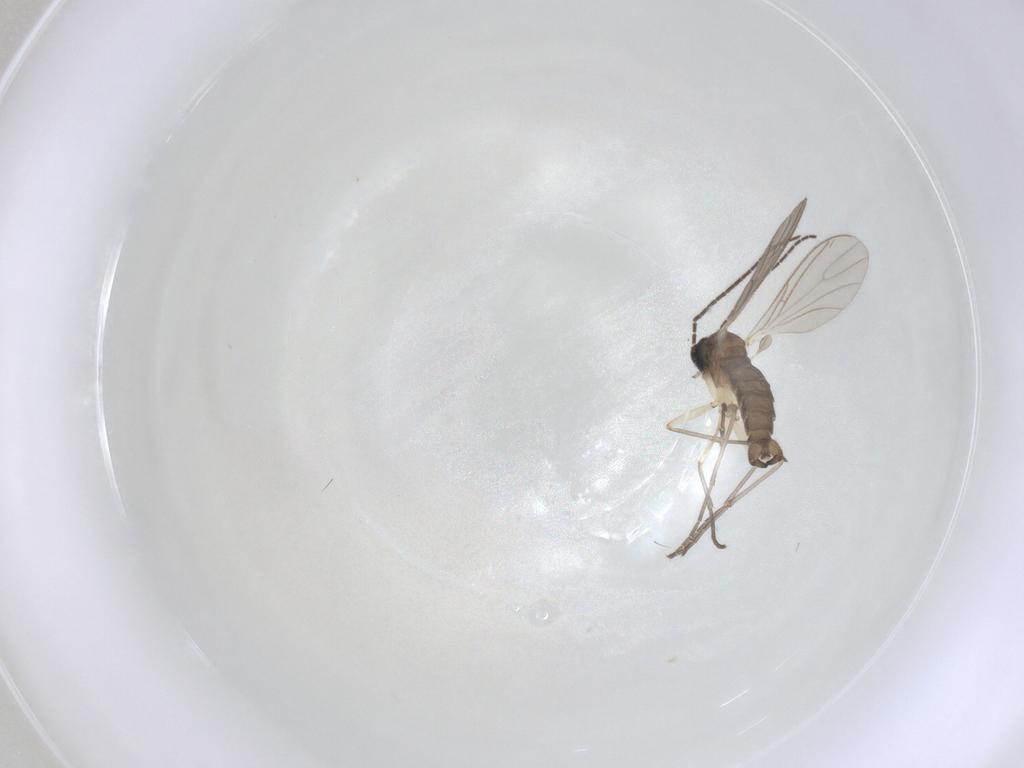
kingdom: Animalia
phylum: Arthropoda
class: Insecta
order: Diptera
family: Sciaridae
